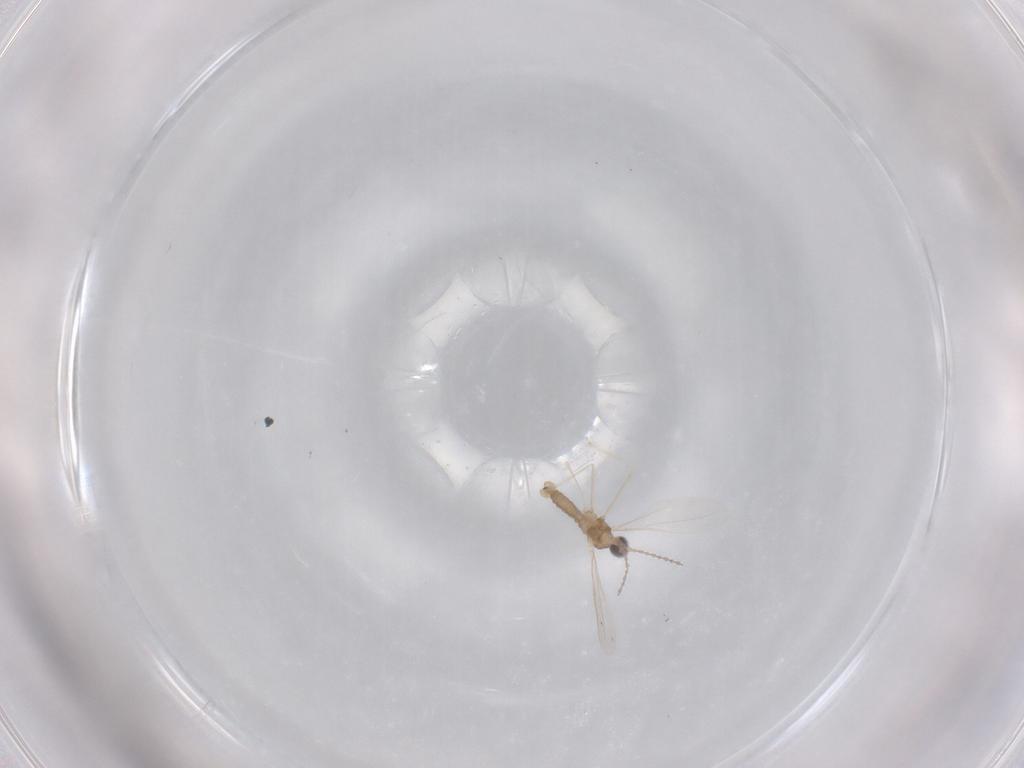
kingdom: Animalia
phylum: Arthropoda
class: Insecta
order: Diptera
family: Cecidomyiidae
